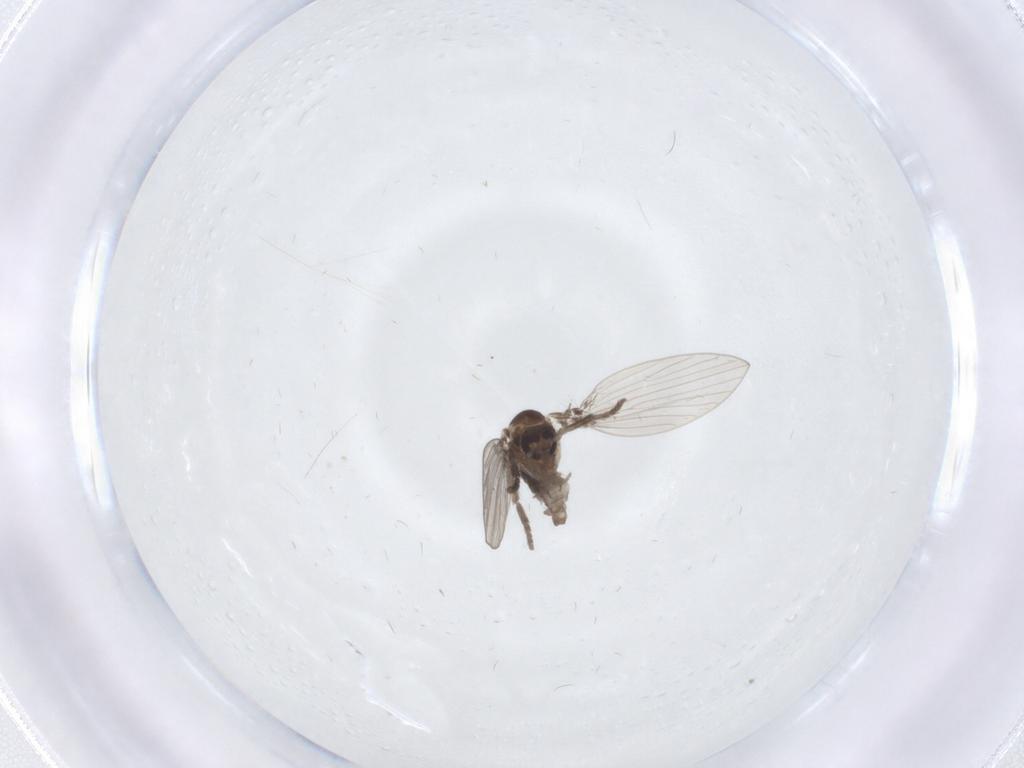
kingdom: Animalia
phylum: Arthropoda
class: Insecta
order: Diptera
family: Psychodidae
